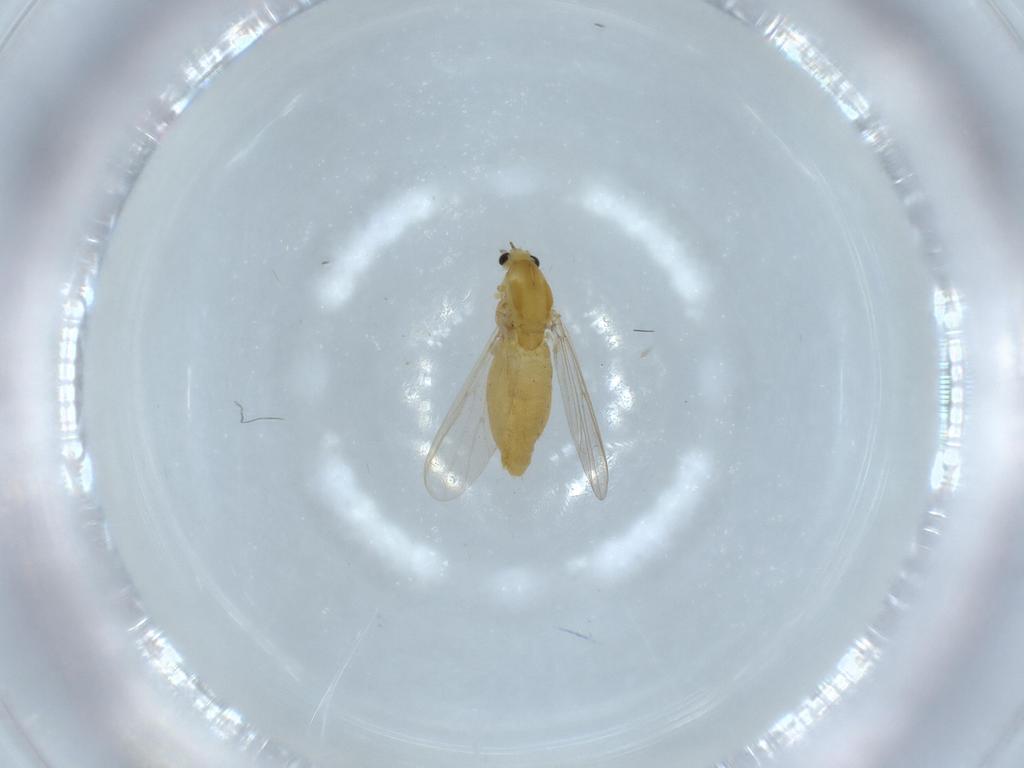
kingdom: Animalia
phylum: Arthropoda
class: Insecta
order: Diptera
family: Chironomidae
